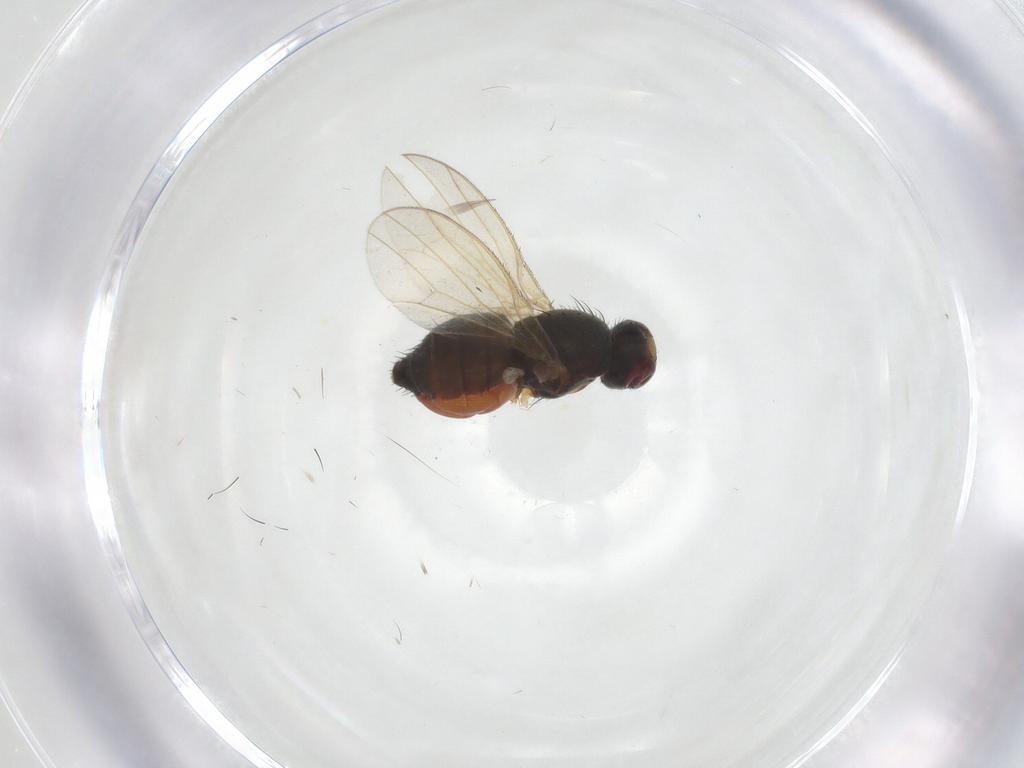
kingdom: Animalia
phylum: Arthropoda
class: Insecta
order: Diptera
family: Heleomyzidae
